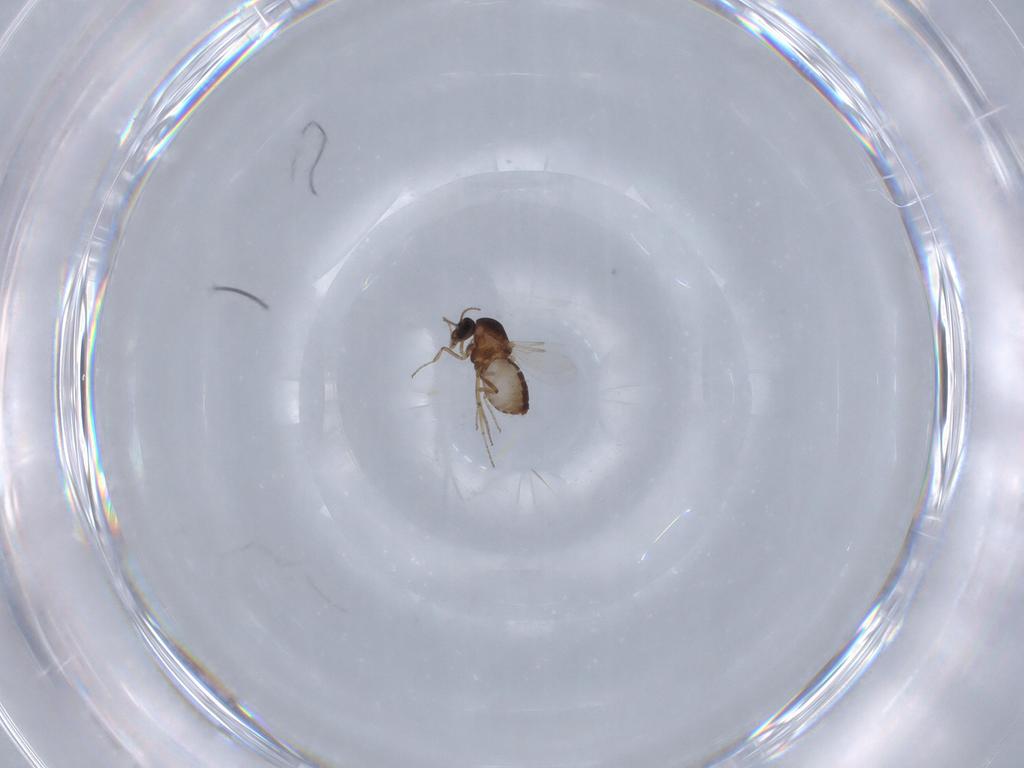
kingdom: Animalia
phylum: Arthropoda
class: Insecta
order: Diptera
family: Ceratopogonidae
